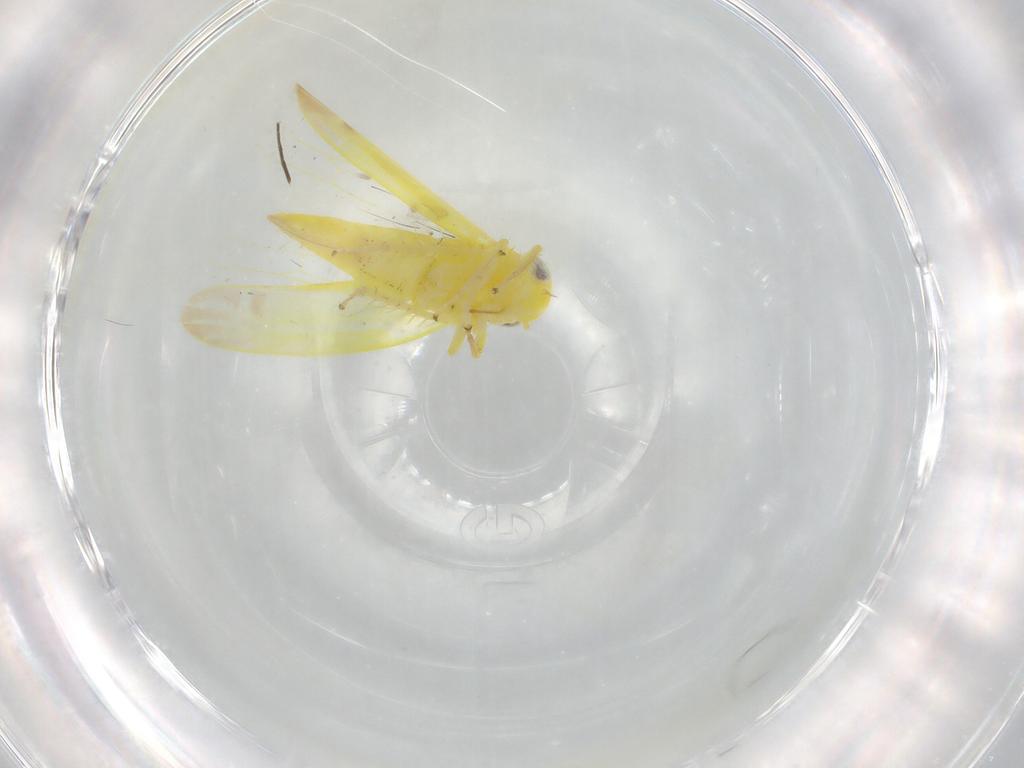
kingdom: Animalia
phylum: Arthropoda
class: Insecta
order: Hemiptera
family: Cicadellidae
